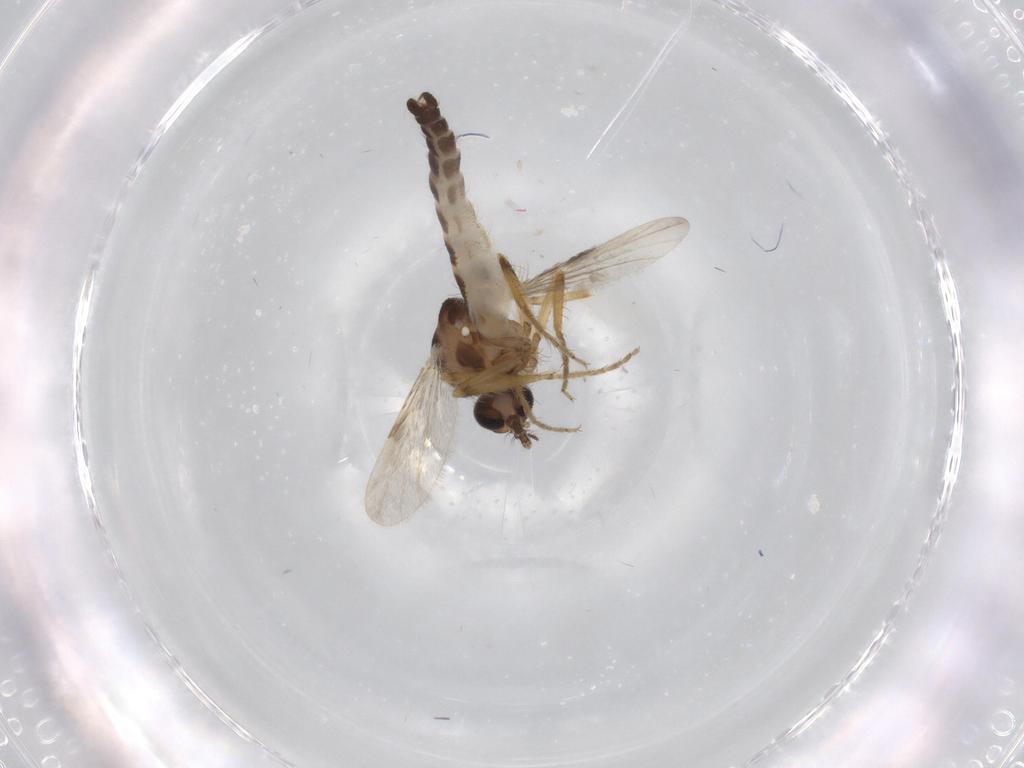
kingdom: Animalia
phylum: Arthropoda
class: Insecta
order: Diptera
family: Ceratopogonidae
